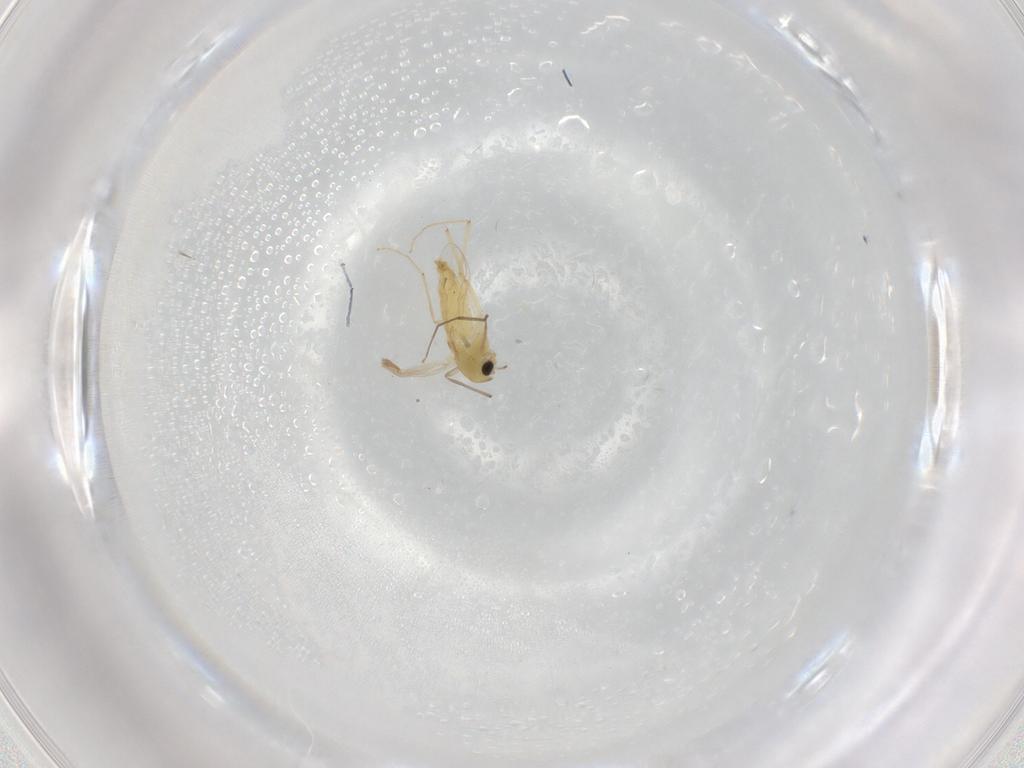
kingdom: Animalia
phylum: Arthropoda
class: Insecta
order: Diptera
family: Chironomidae
